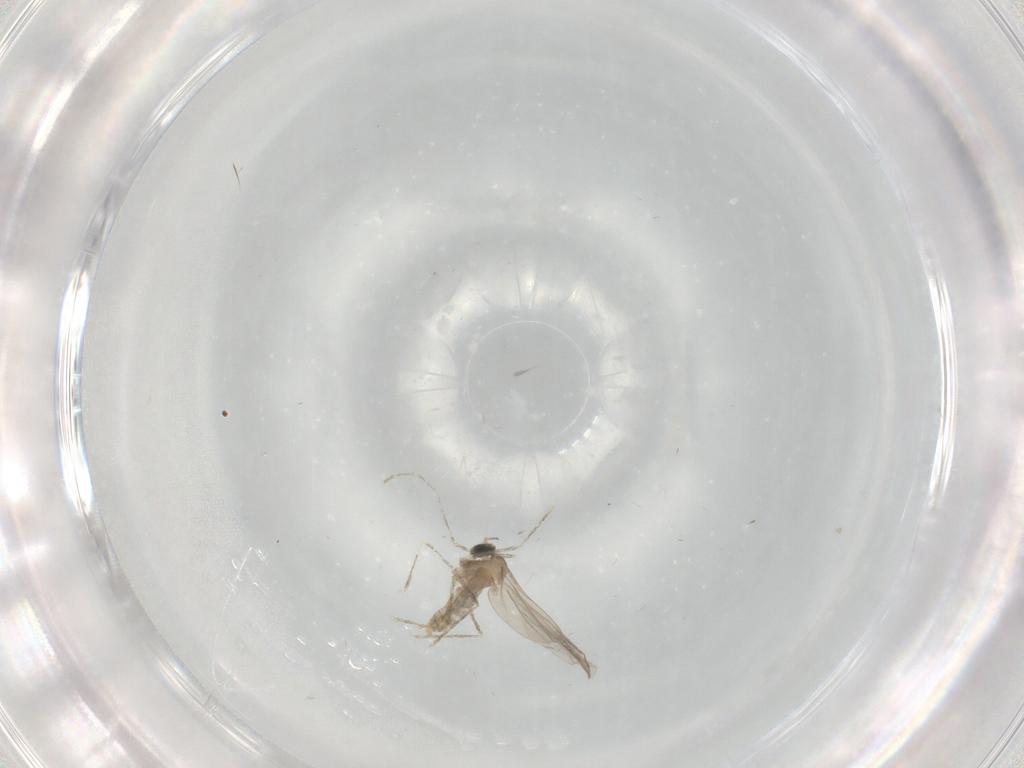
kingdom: Animalia
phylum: Arthropoda
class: Insecta
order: Diptera
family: Cecidomyiidae
